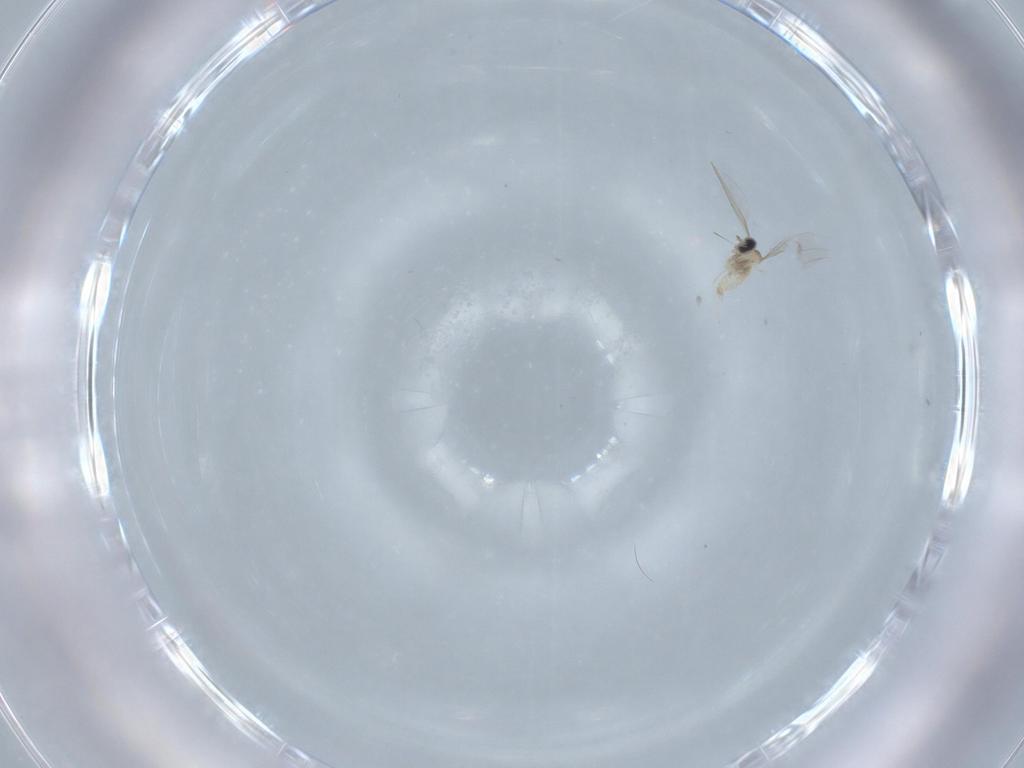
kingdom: Animalia
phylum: Arthropoda
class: Insecta
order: Diptera
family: Cecidomyiidae
